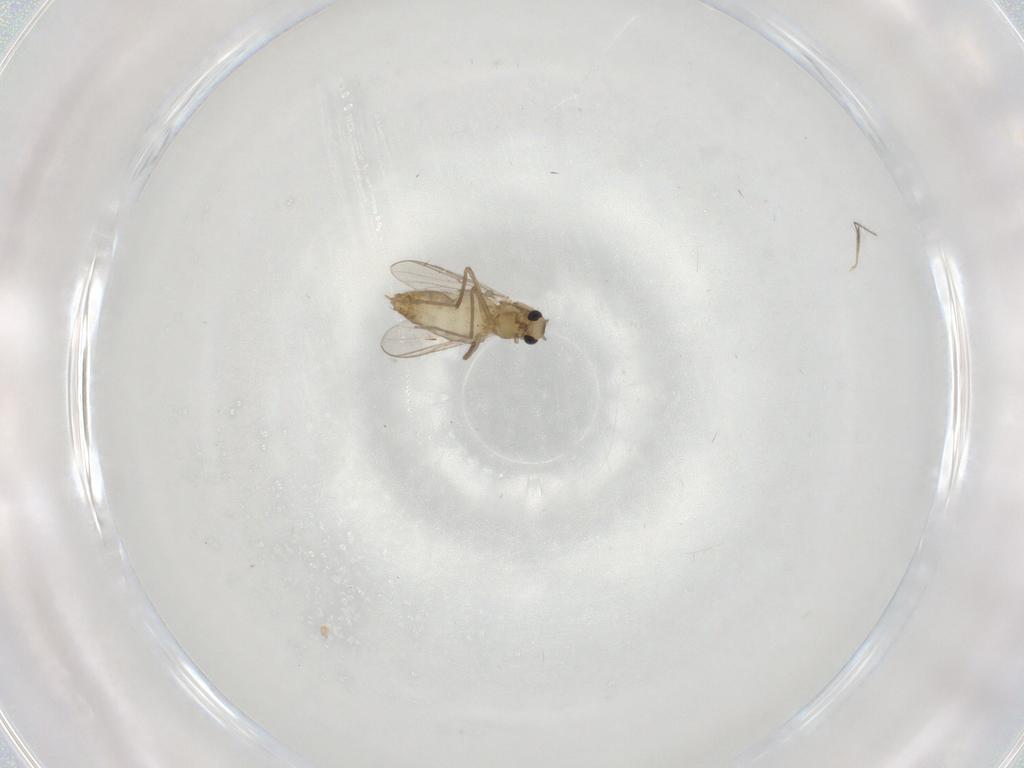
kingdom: Animalia
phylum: Arthropoda
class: Insecta
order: Diptera
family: Chironomidae
